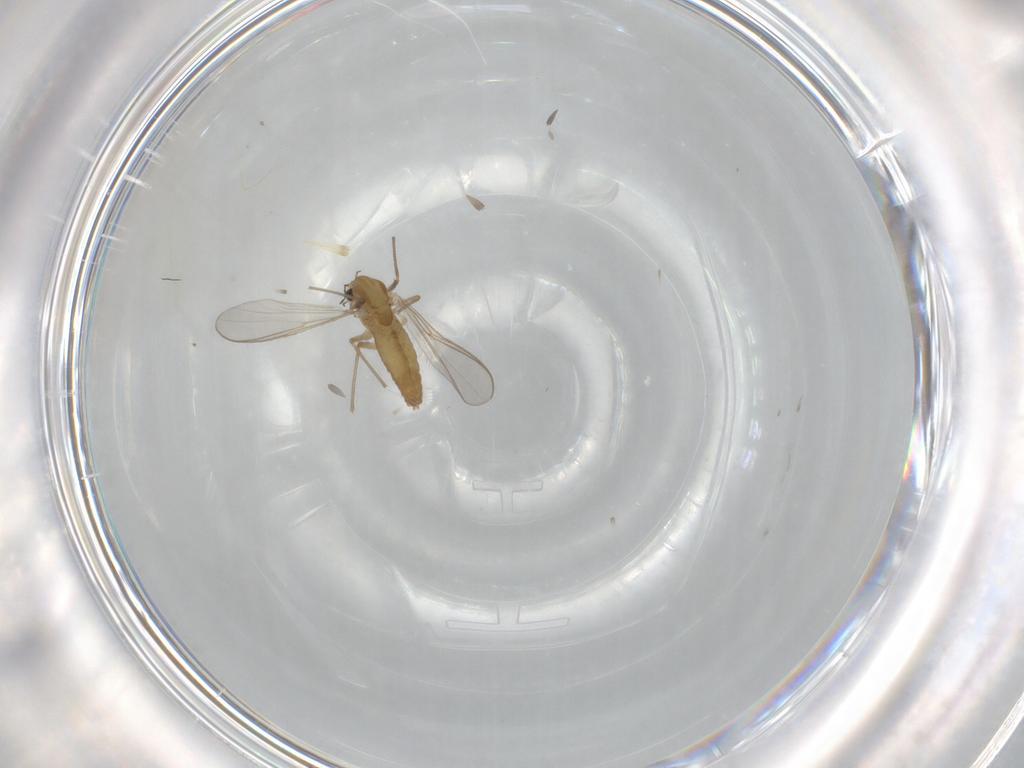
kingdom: Animalia
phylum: Arthropoda
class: Insecta
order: Diptera
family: Chironomidae
